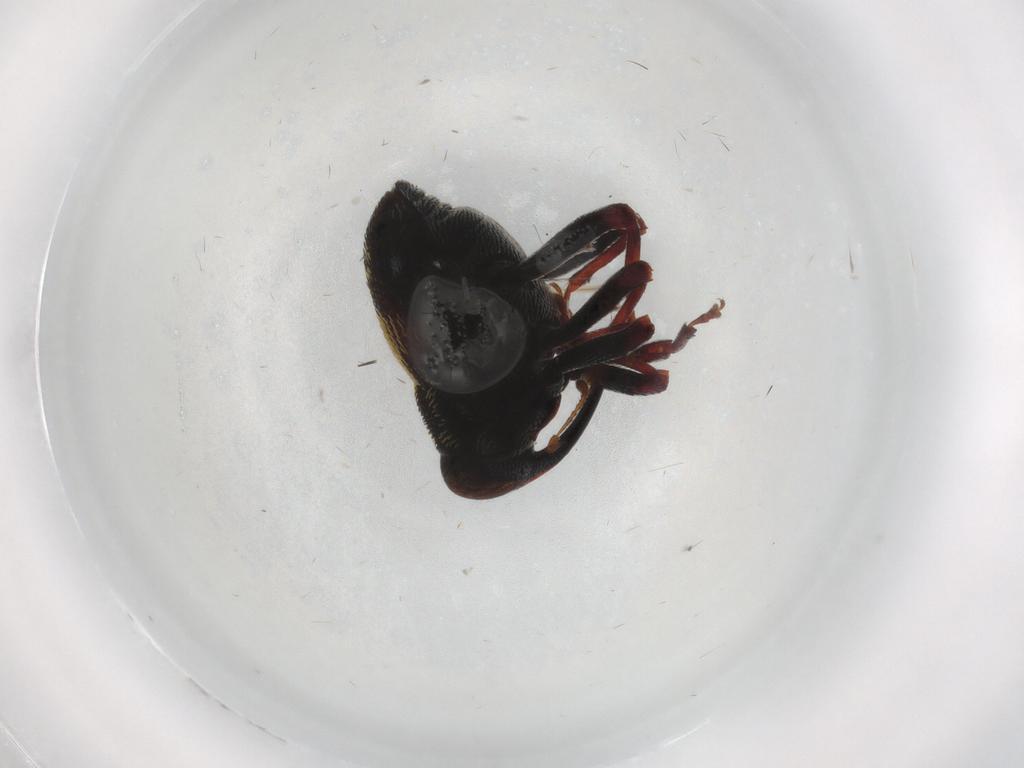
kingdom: Animalia
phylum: Arthropoda
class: Insecta
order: Coleoptera
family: Curculionidae
